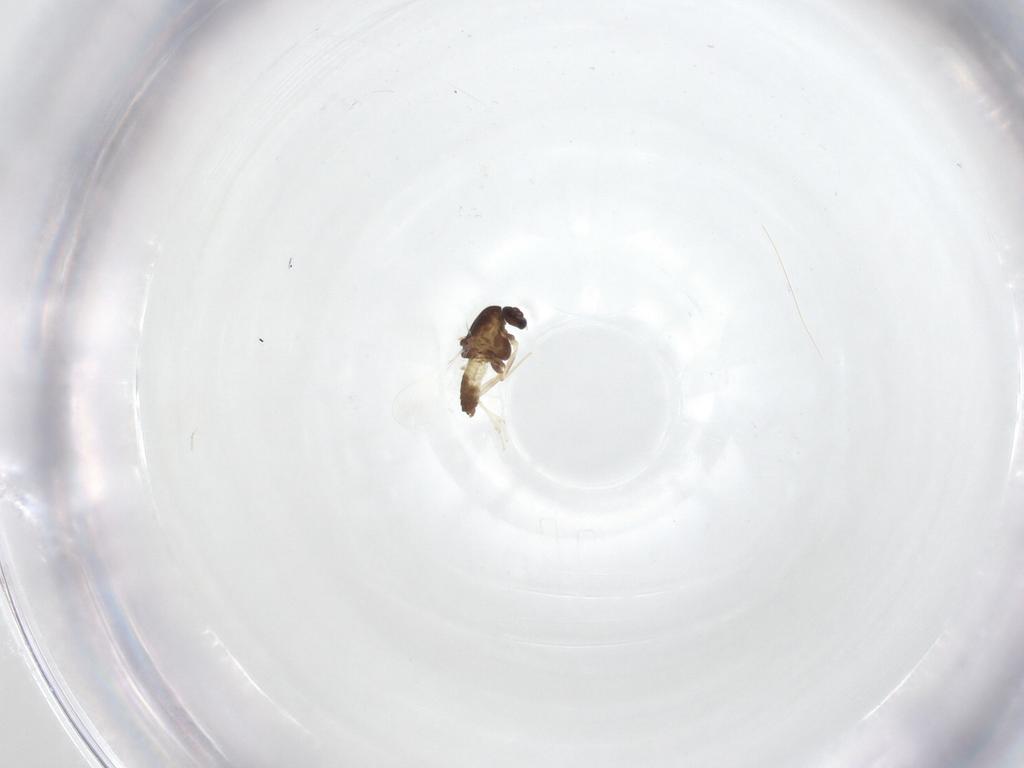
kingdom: Animalia
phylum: Arthropoda
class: Insecta
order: Diptera
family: Chironomidae
